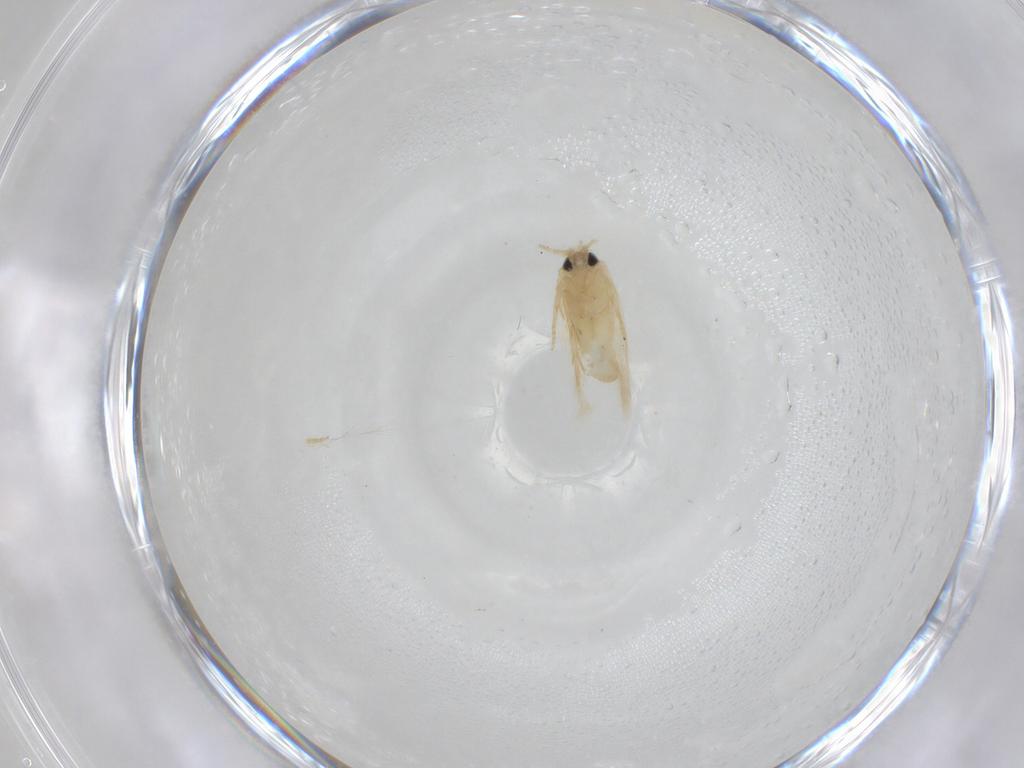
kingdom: Animalia
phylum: Arthropoda
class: Insecta
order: Lepidoptera
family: Nepticulidae
